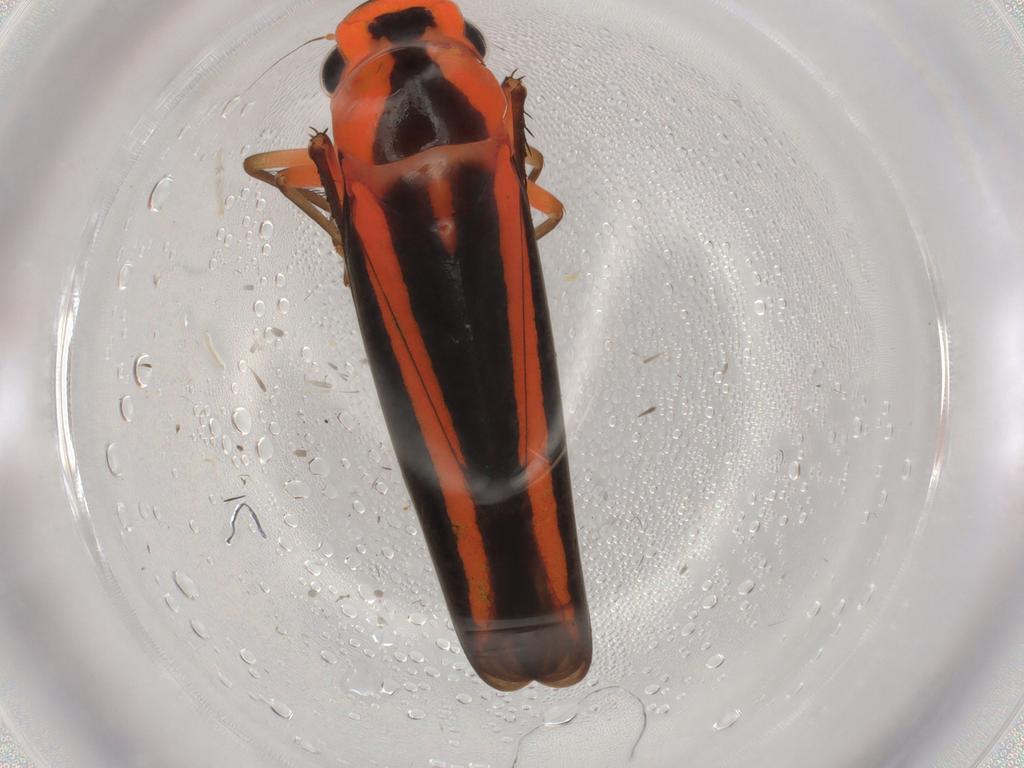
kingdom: Animalia
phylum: Arthropoda
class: Insecta
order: Hemiptera
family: Cicadellidae
